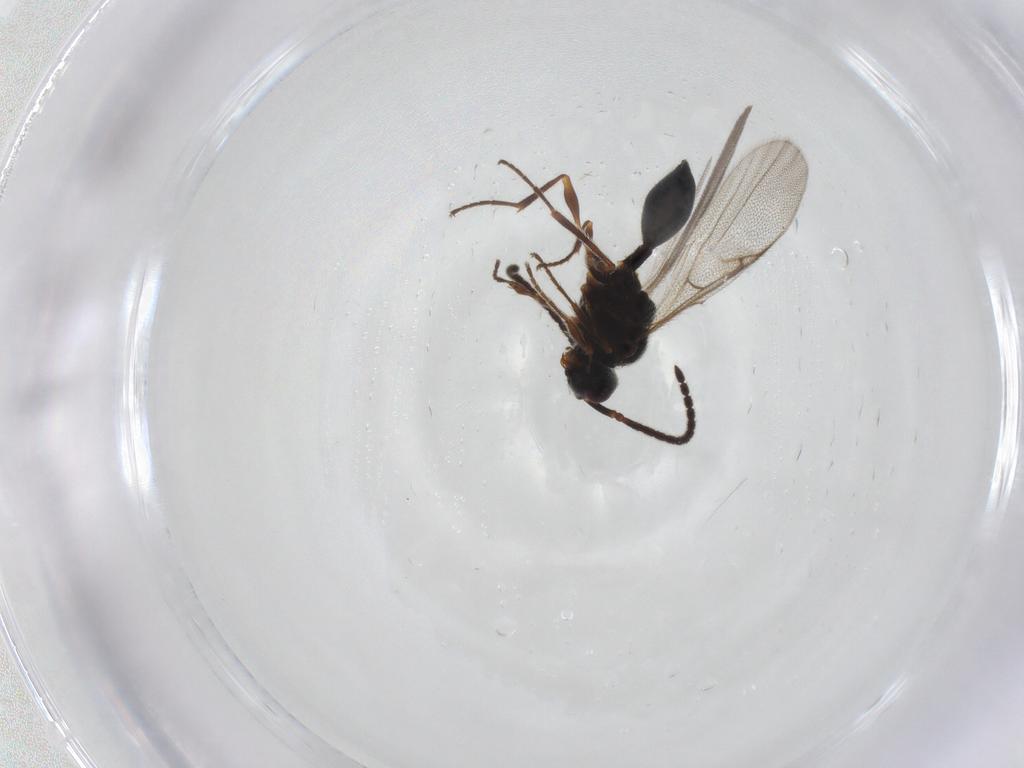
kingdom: Animalia
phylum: Arthropoda
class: Insecta
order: Hymenoptera
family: Diapriidae
